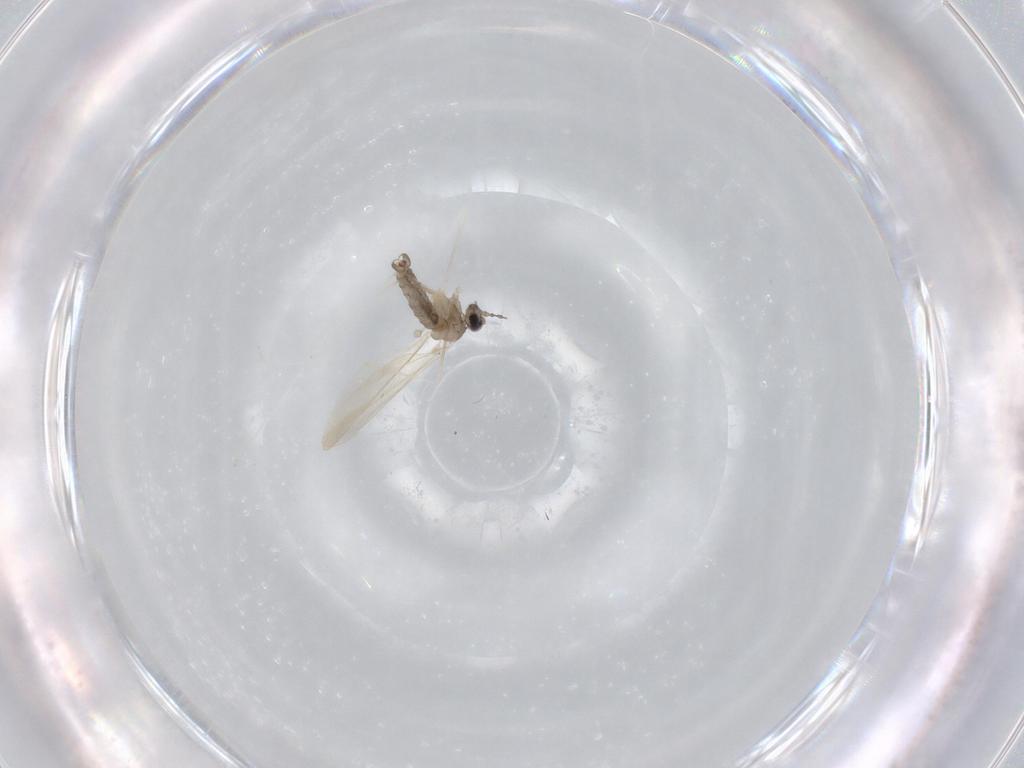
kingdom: Animalia
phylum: Arthropoda
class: Insecta
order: Diptera
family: Cecidomyiidae
